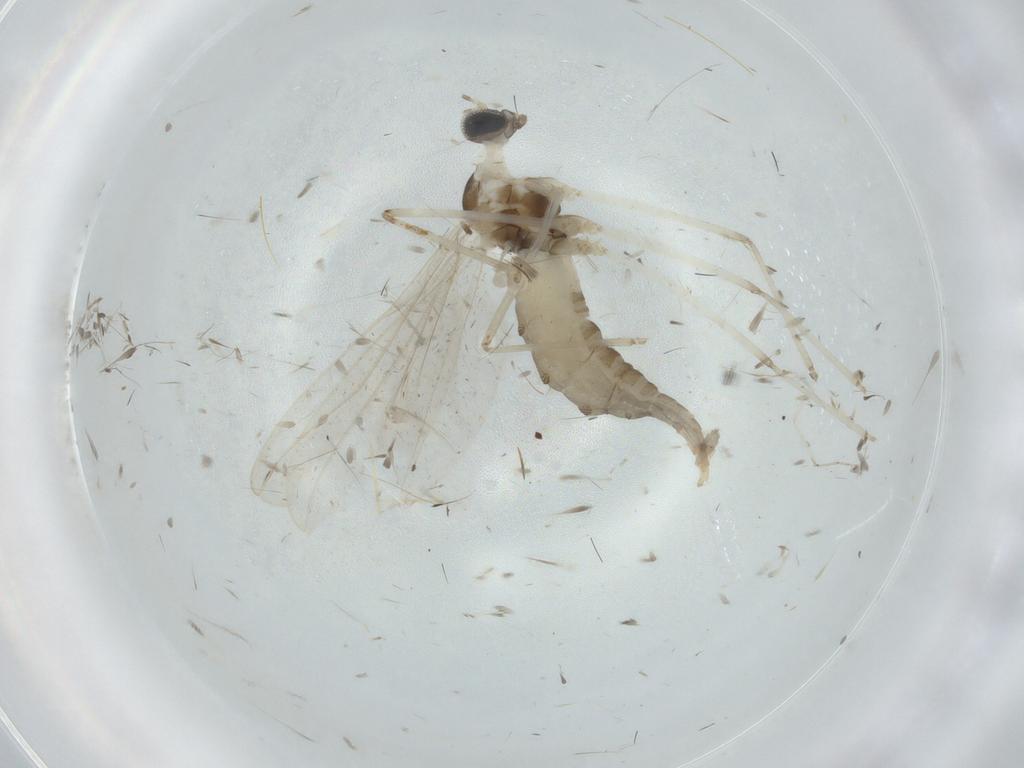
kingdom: Animalia
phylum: Arthropoda
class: Insecta
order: Diptera
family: Cecidomyiidae
